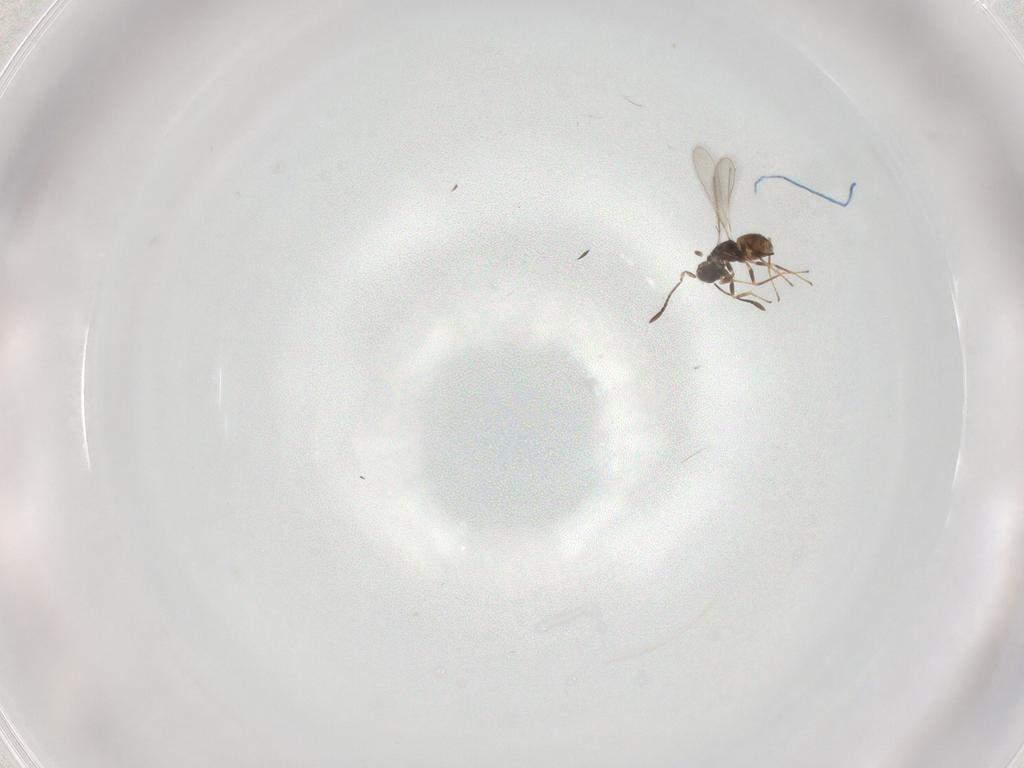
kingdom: Animalia
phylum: Arthropoda
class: Insecta
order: Hymenoptera
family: Mymaridae
